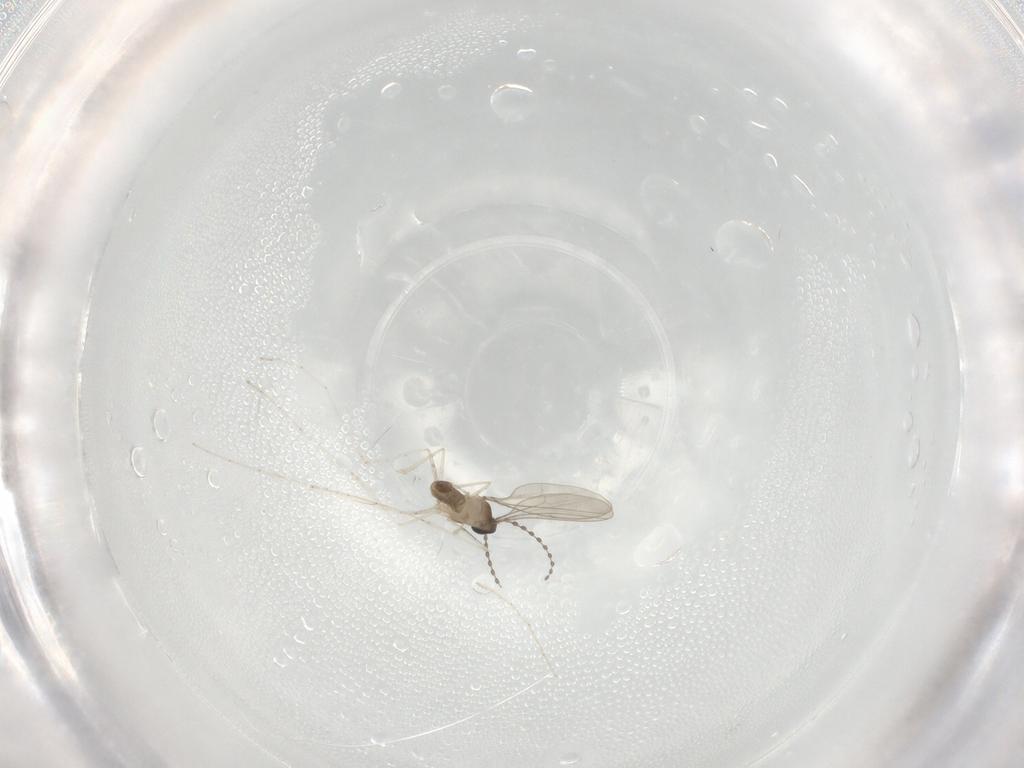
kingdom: Animalia
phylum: Arthropoda
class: Insecta
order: Diptera
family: Cecidomyiidae
